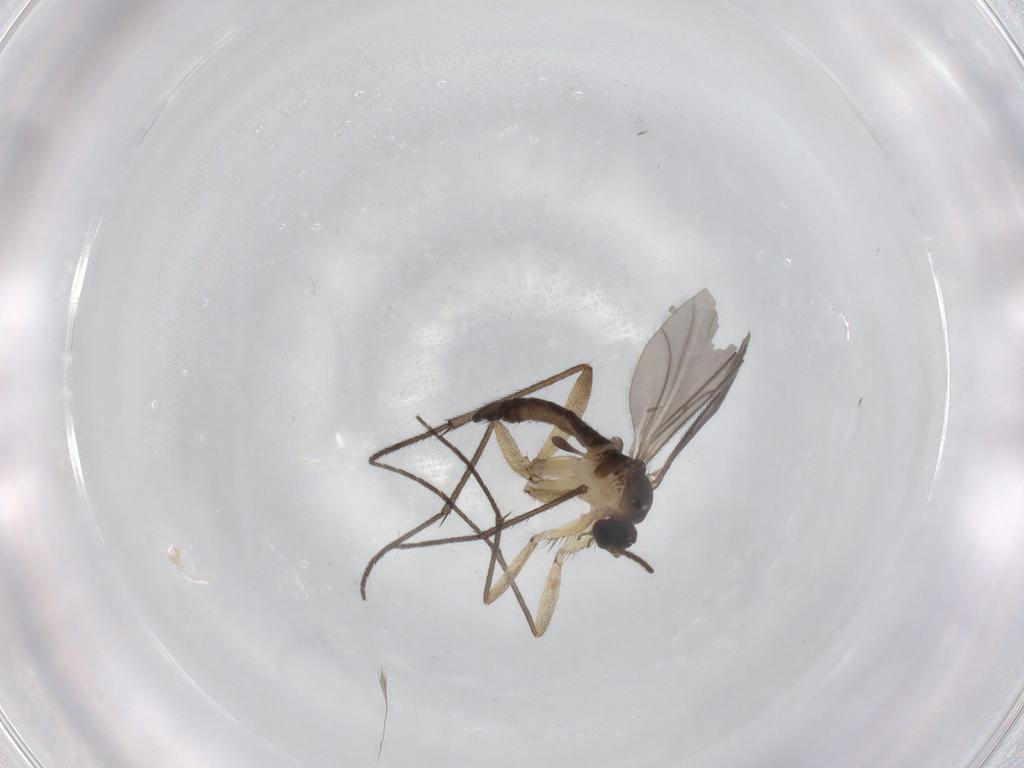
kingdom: Animalia
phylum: Arthropoda
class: Insecta
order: Diptera
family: Sciaridae
